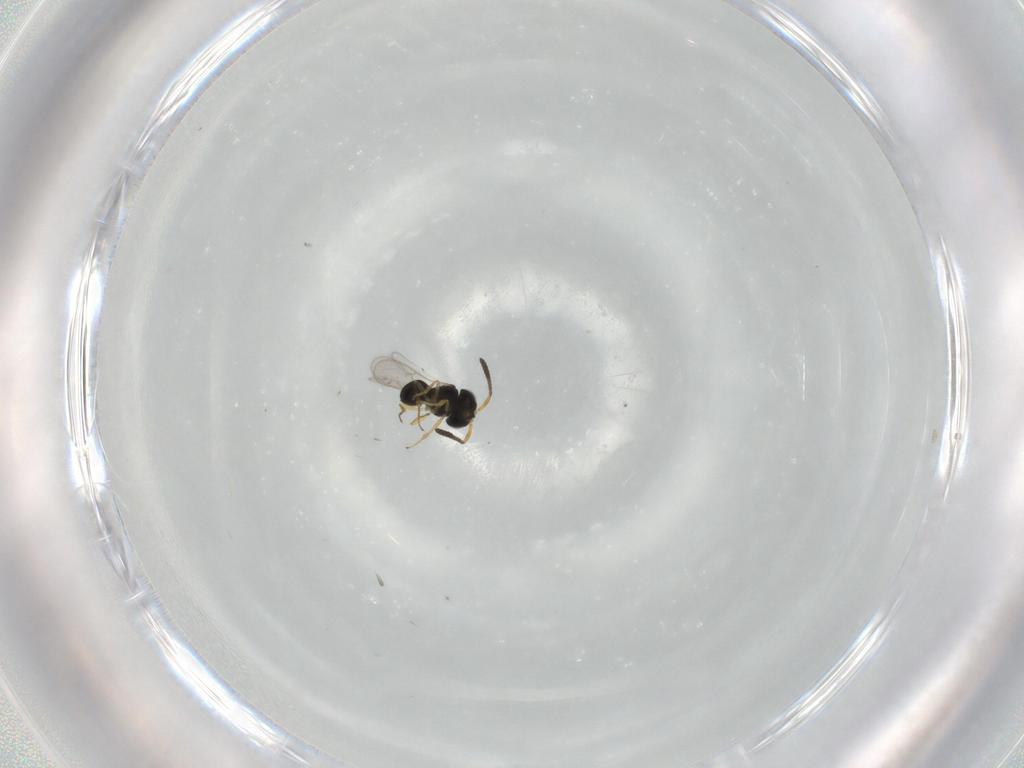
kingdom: Animalia
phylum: Arthropoda
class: Insecta
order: Hymenoptera
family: Scelionidae
